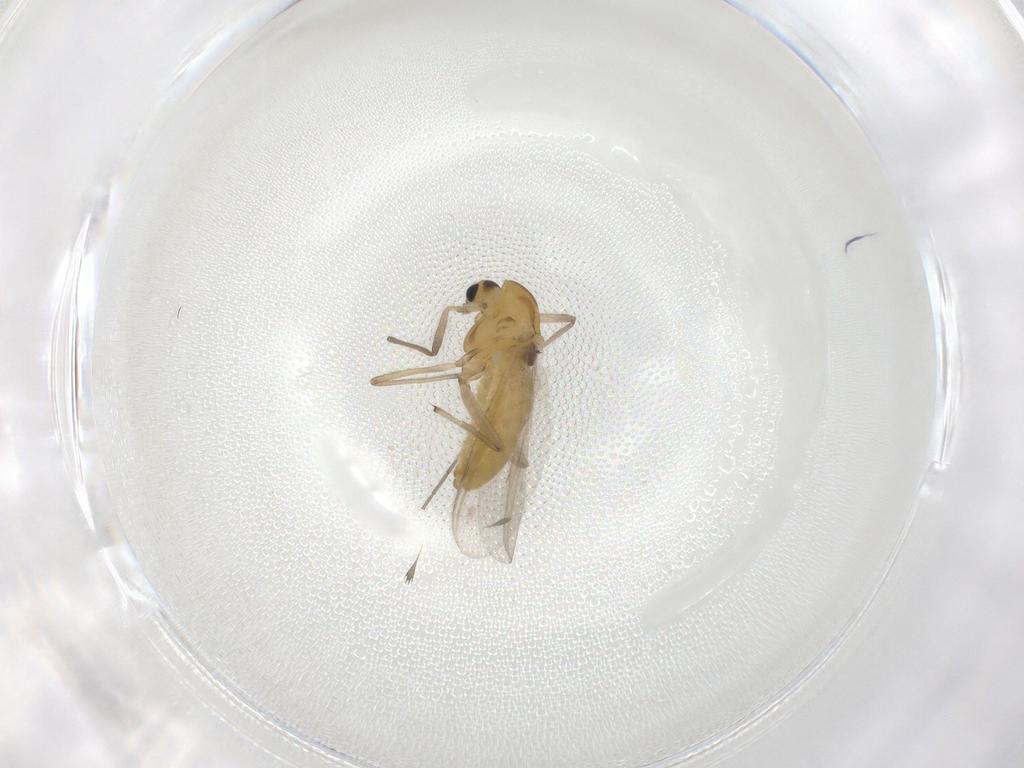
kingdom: Animalia
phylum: Arthropoda
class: Insecta
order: Diptera
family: Chironomidae
